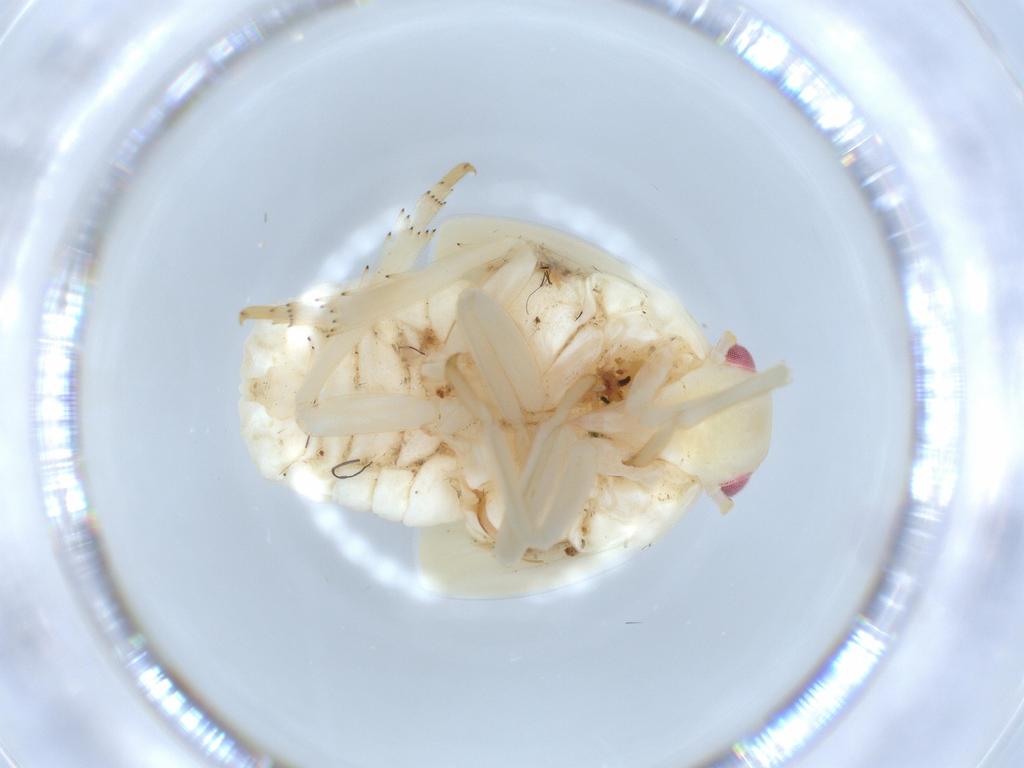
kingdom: Animalia
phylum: Arthropoda
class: Insecta
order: Hemiptera
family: Flatidae
